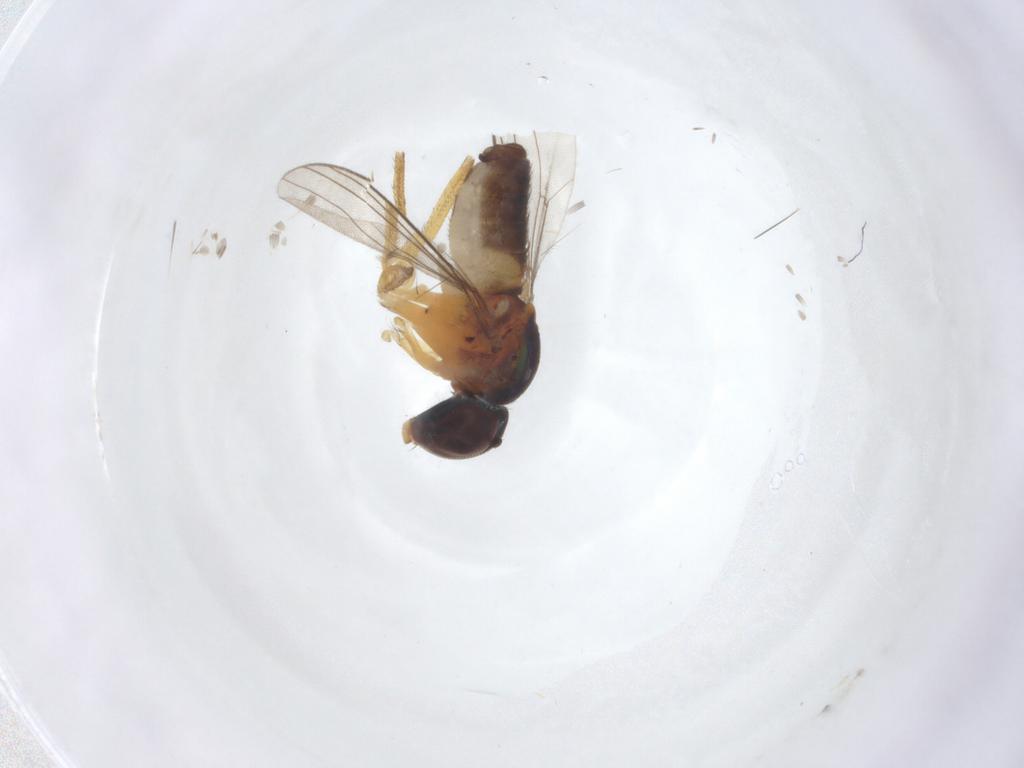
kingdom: Animalia
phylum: Arthropoda
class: Insecta
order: Diptera
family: Dolichopodidae
